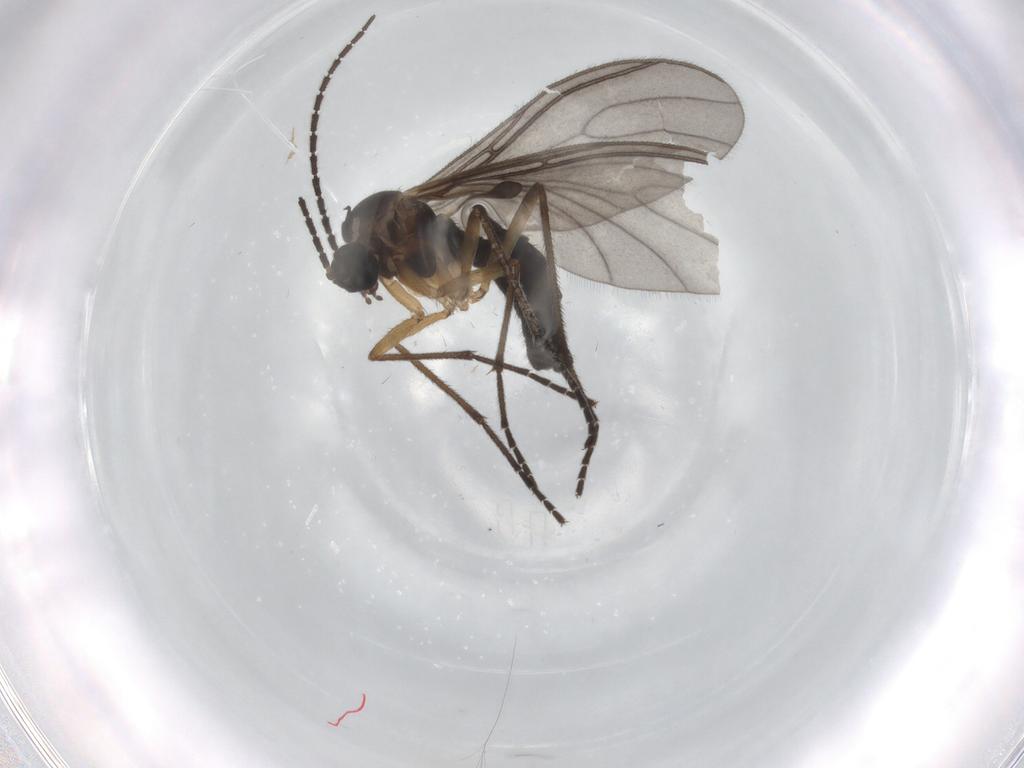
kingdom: Animalia
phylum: Arthropoda
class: Insecta
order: Diptera
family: Sciaridae
